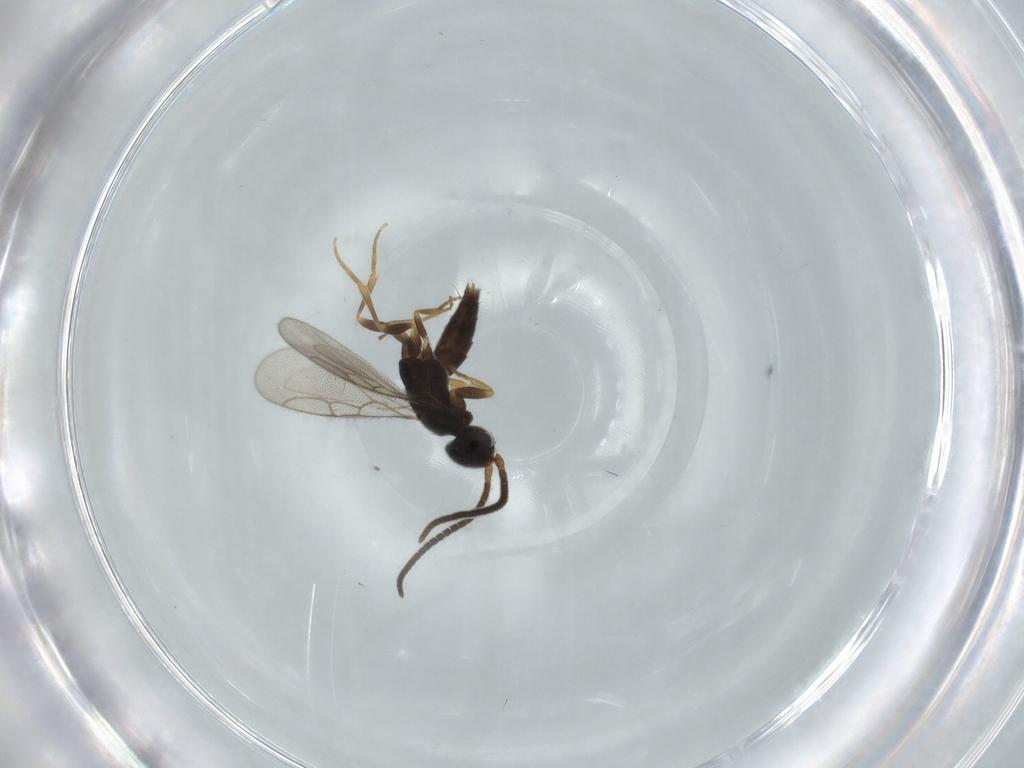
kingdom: Animalia
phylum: Arthropoda
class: Insecta
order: Hymenoptera
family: Sclerogibbidae
